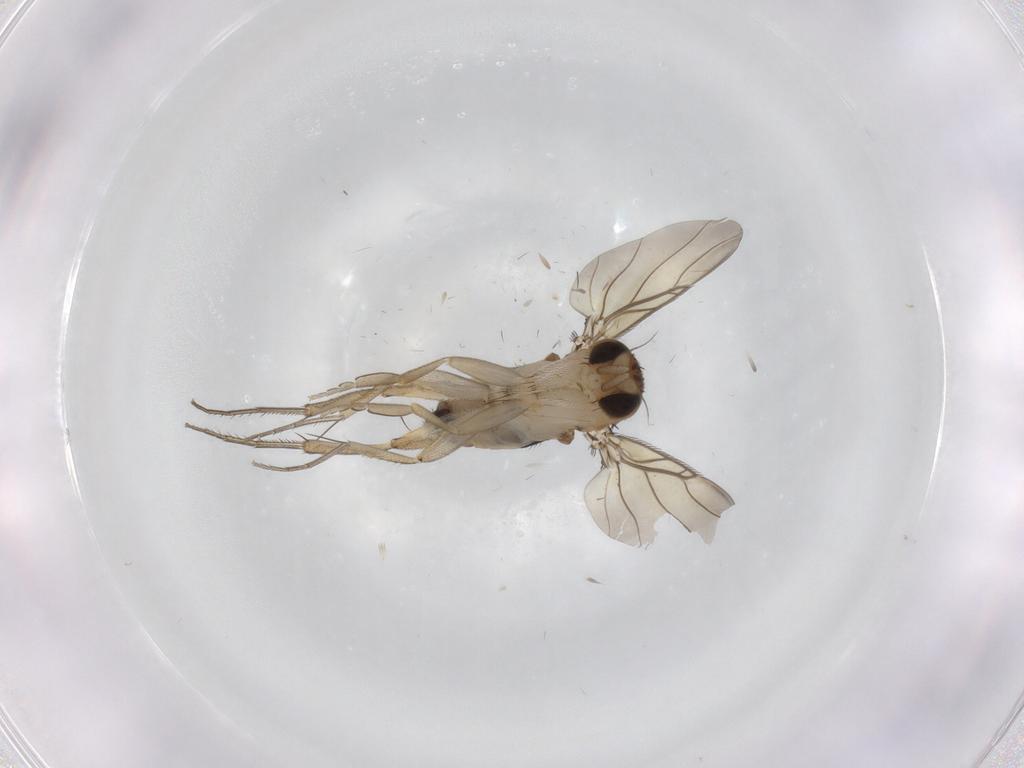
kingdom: Animalia
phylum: Arthropoda
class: Insecta
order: Diptera
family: Phoridae
